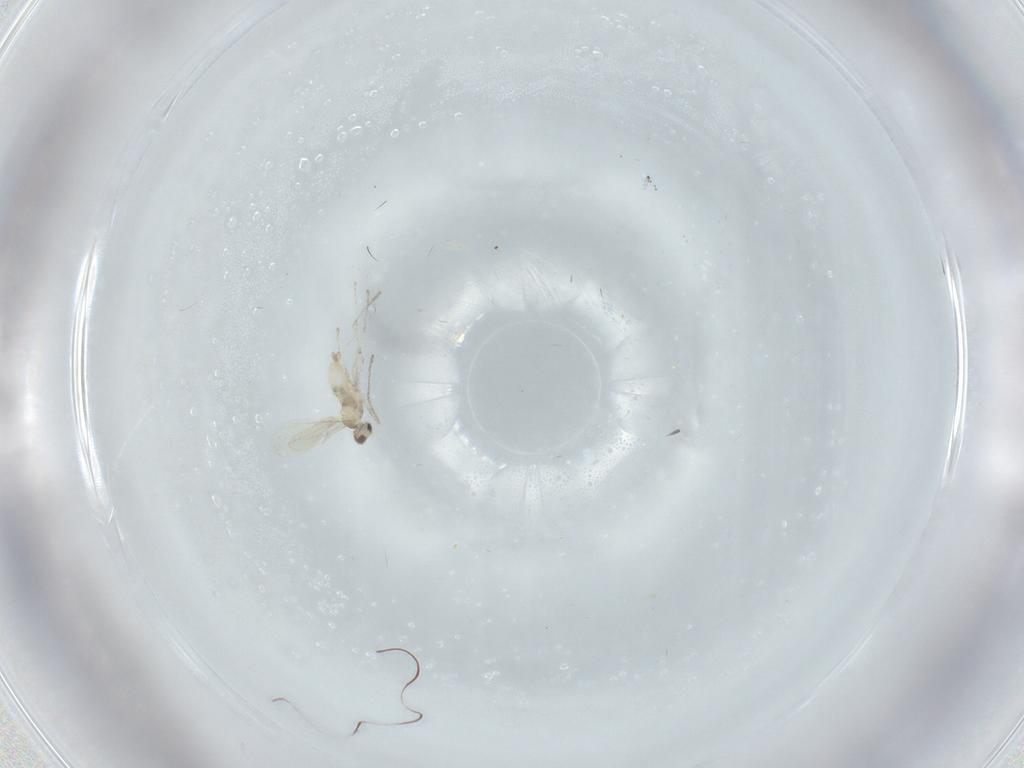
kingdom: Animalia
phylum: Arthropoda
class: Insecta
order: Diptera
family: Cecidomyiidae
